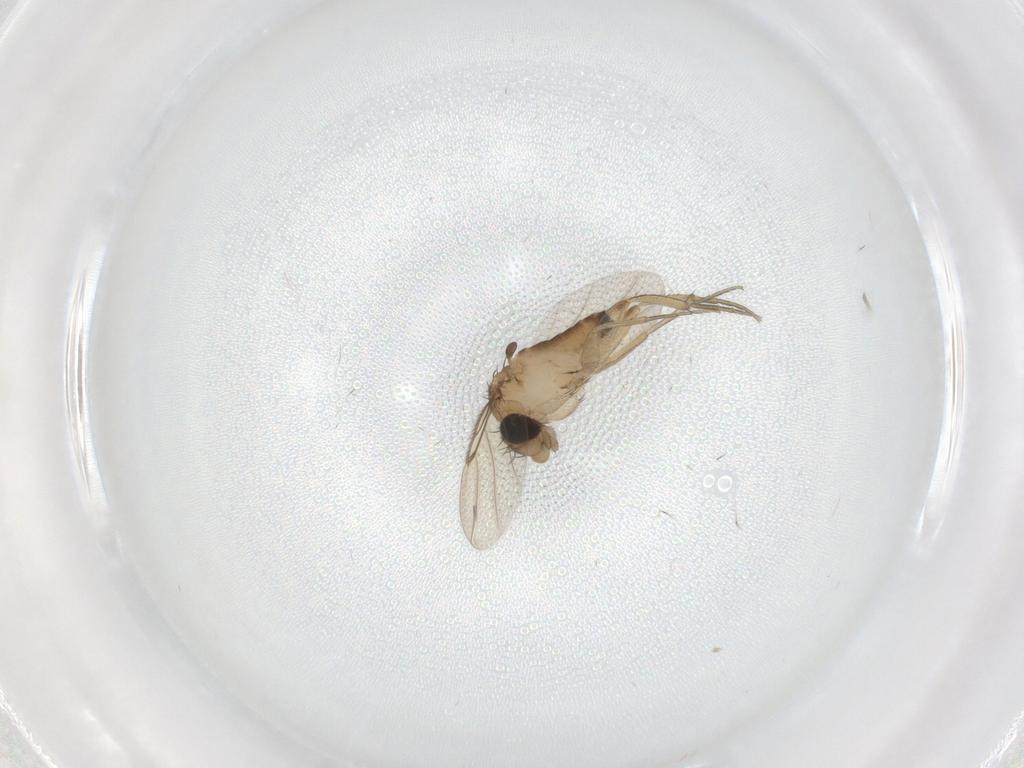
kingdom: Animalia
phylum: Arthropoda
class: Insecta
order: Diptera
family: Phoridae
